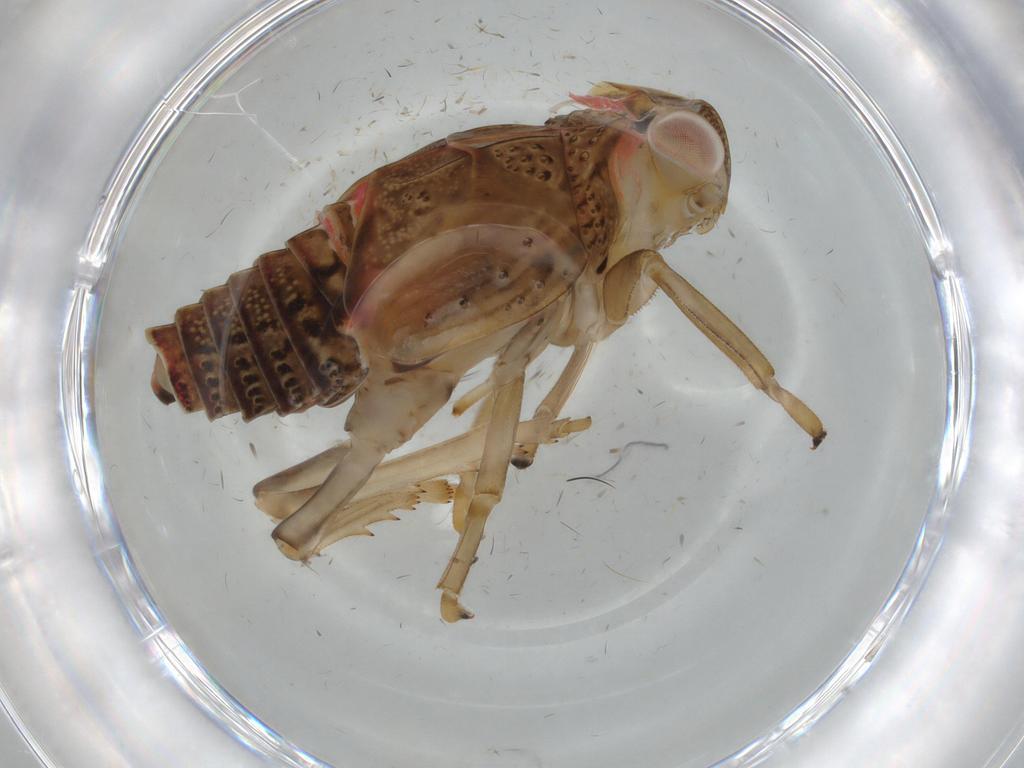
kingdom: Animalia
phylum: Arthropoda
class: Insecta
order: Hemiptera
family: Issidae
